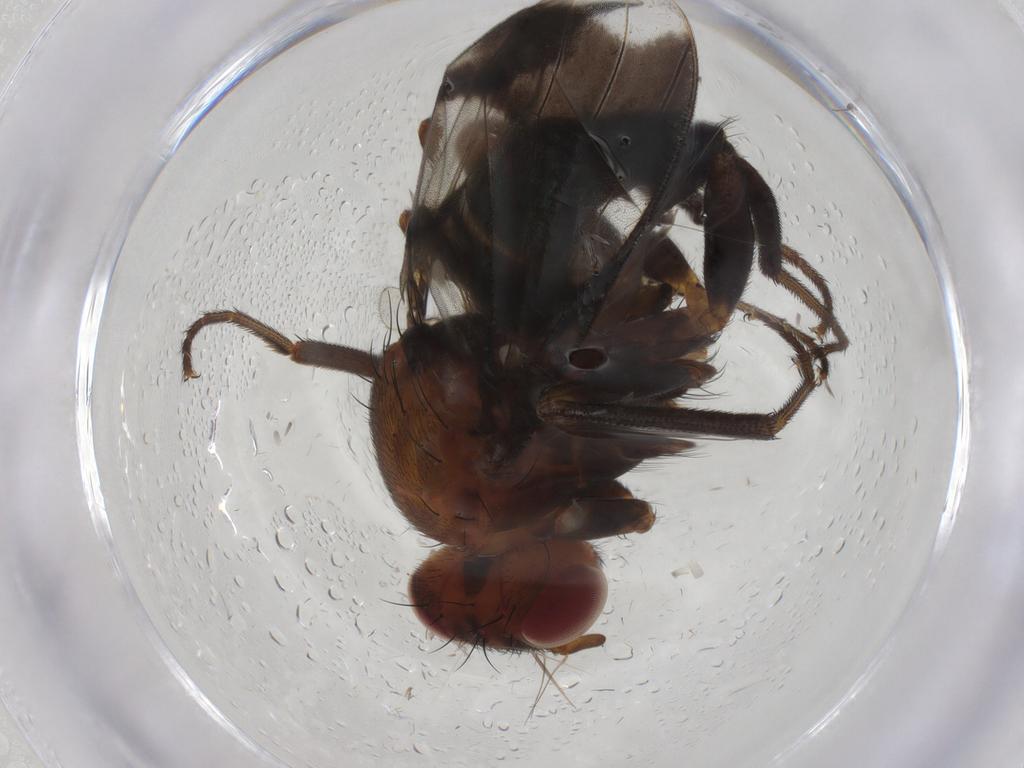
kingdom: Animalia
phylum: Arthropoda
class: Insecta
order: Diptera
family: Richardiidae
